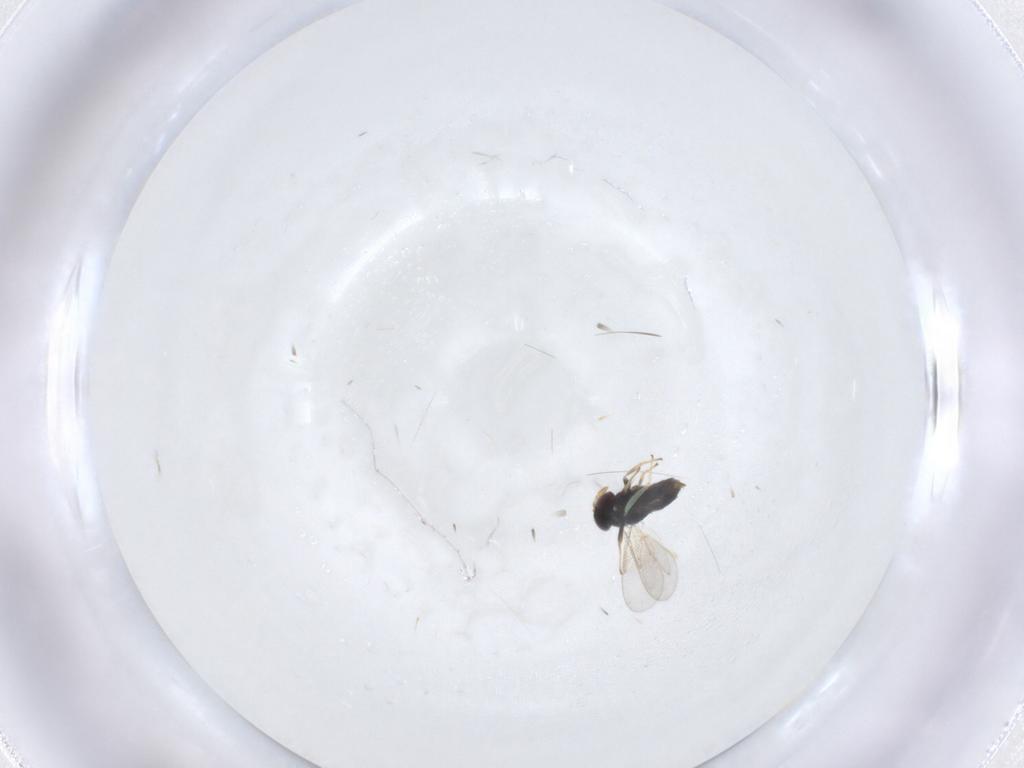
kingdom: Animalia
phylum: Arthropoda
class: Insecta
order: Hymenoptera
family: Aphelinidae
